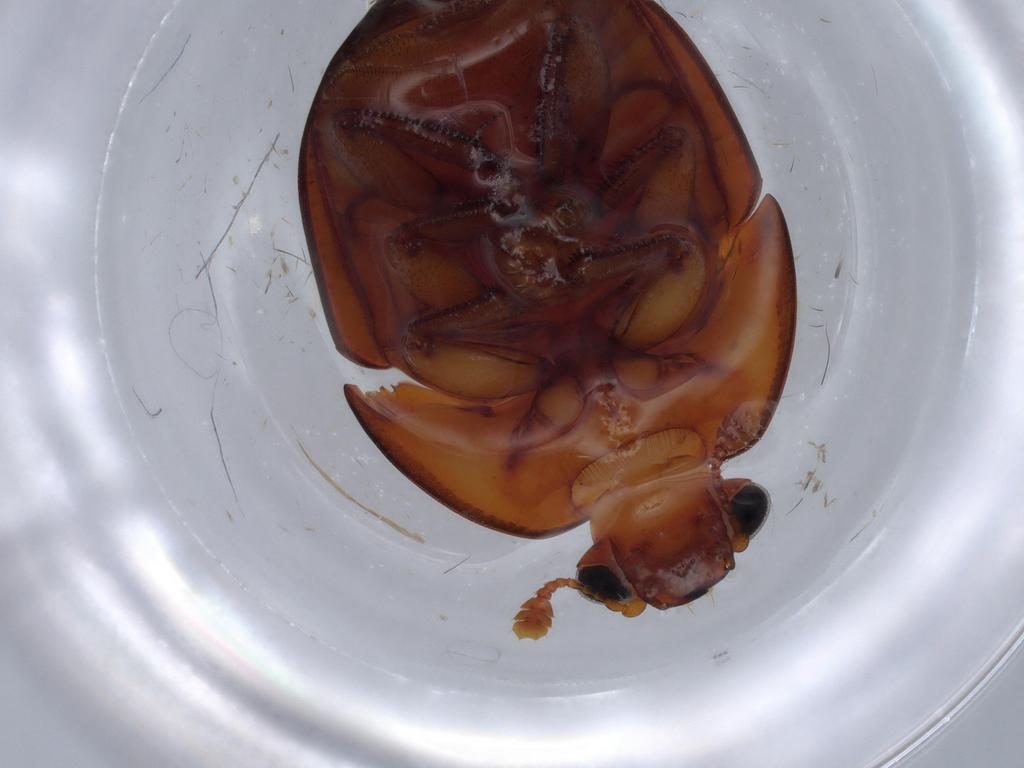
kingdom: Animalia
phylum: Arthropoda
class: Insecta
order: Coleoptera
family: Nitidulidae
